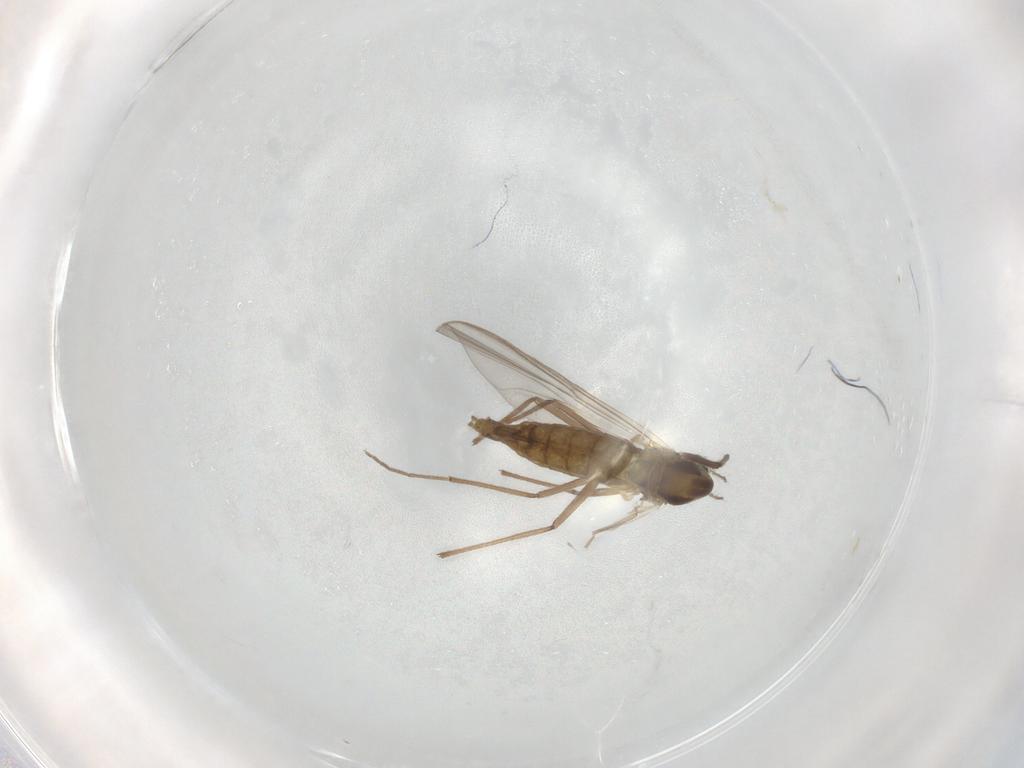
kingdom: Animalia
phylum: Arthropoda
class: Insecta
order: Diptera
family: Chironomidae
